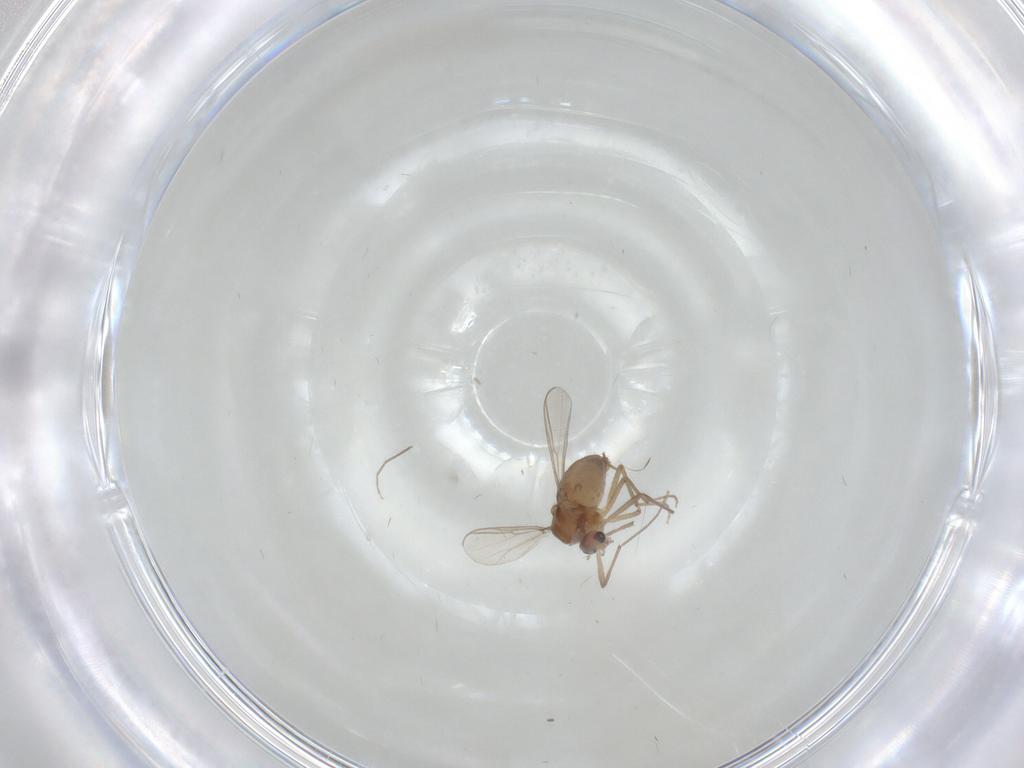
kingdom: Animalia
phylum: Arthropoda
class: Insecta
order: Diptera
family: Chironomidae
